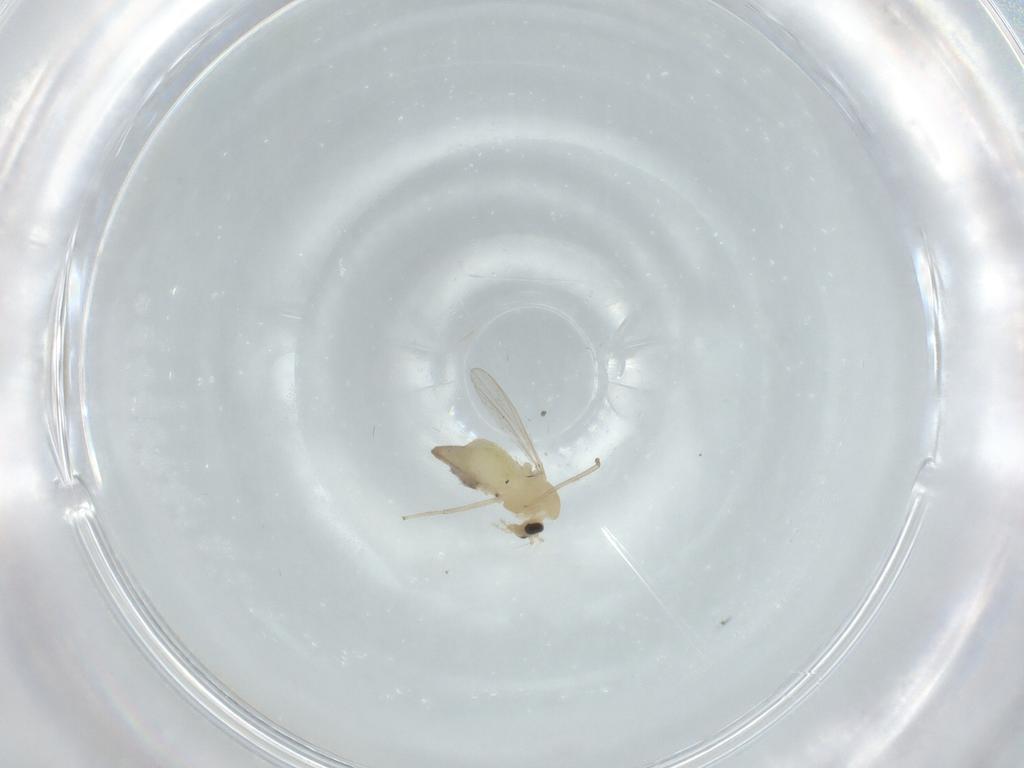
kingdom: Animalia
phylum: Arthropoda
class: Insecta
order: Diptera
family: Chironomidae
